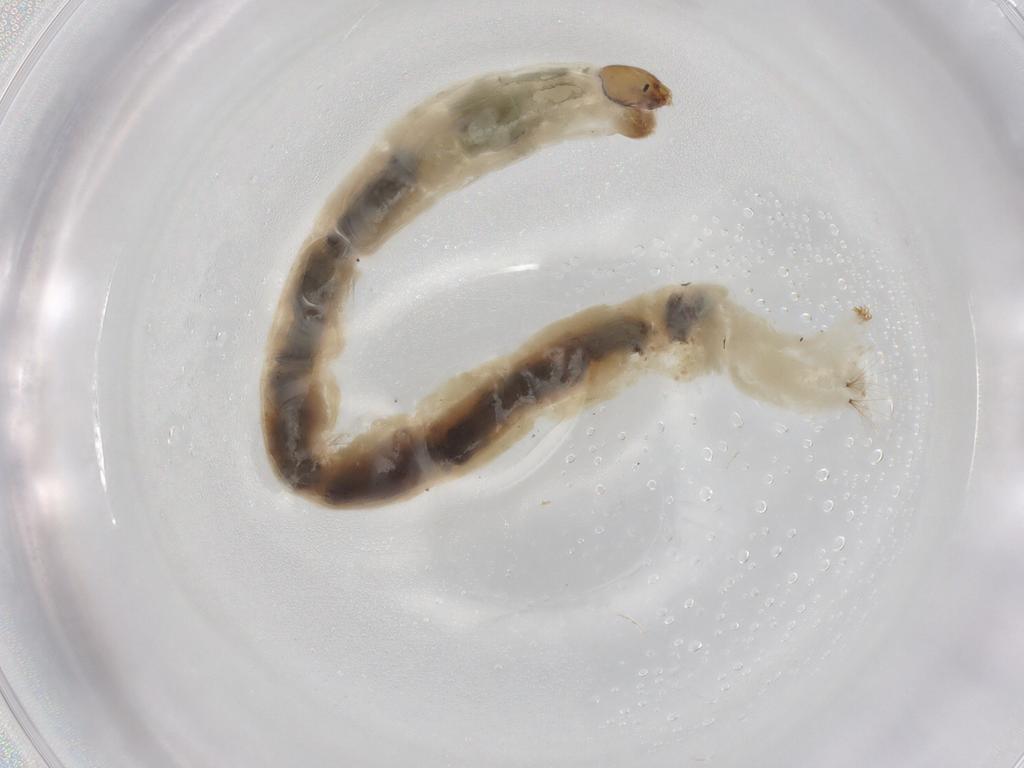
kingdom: Animalia
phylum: Arthropoda
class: Insecta
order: Diptera
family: Chironomidae
